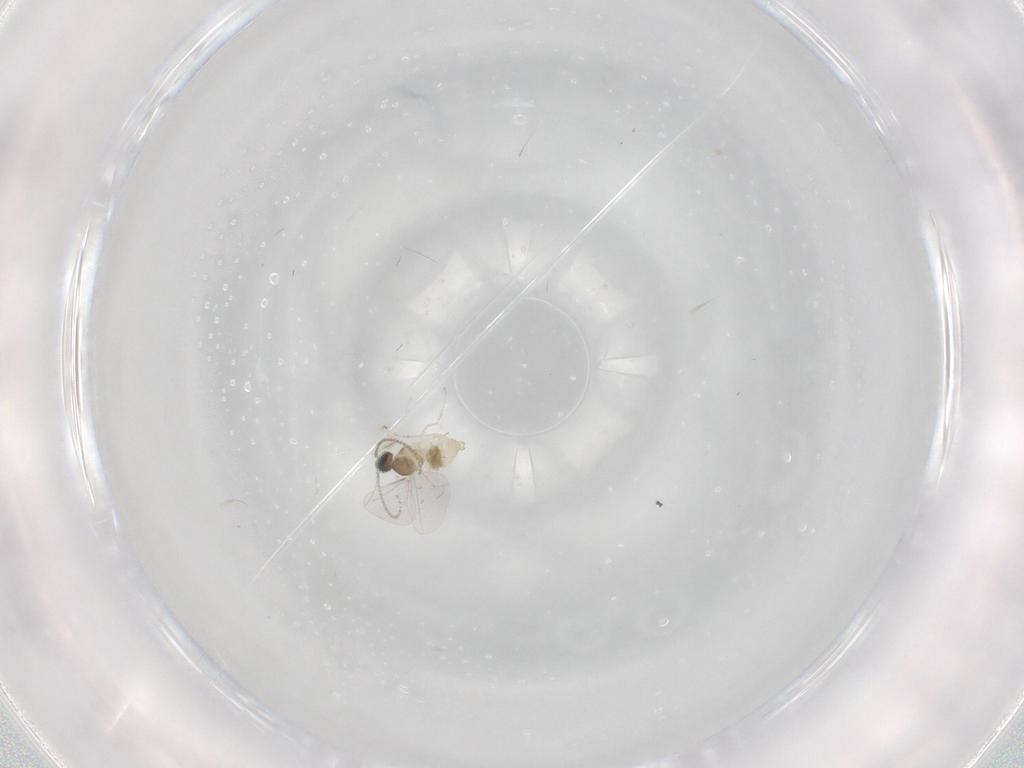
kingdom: Animalia
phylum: Arthropoda
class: Insecta
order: Diptera
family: Cecidomyiidae
